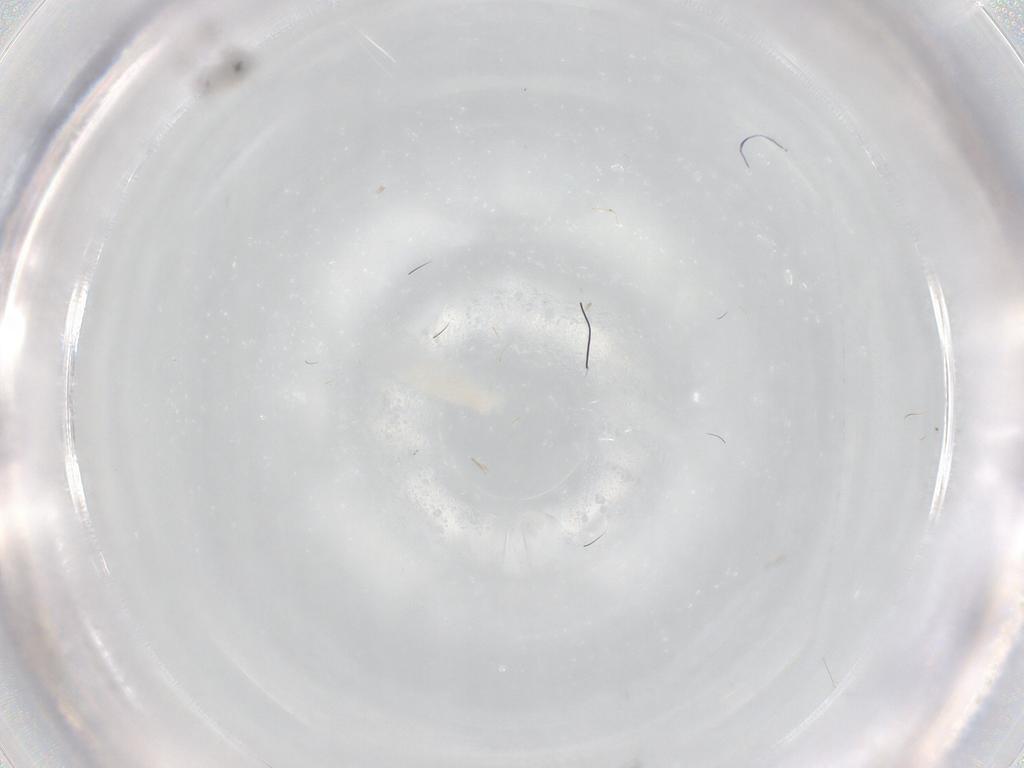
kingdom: Animalia
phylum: Arthropoda
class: Insecta
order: Hymenoptera
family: Mymaridae
